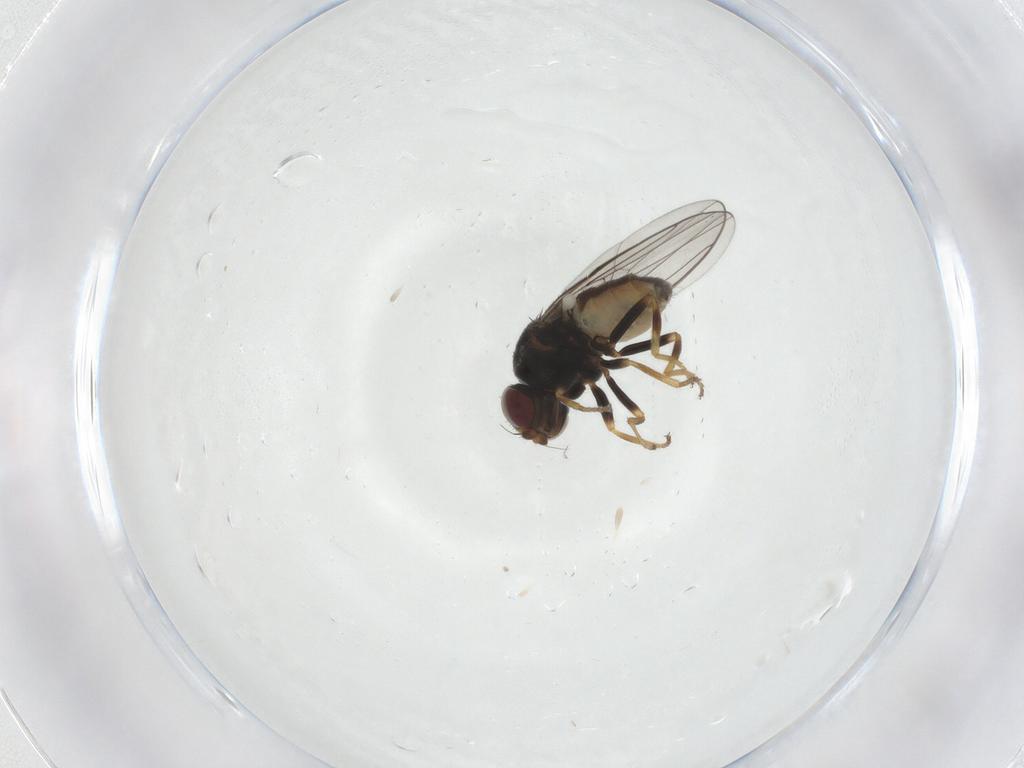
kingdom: Animalia
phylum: Arthropoda
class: Insecta
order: Diptera
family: Chloropidae
